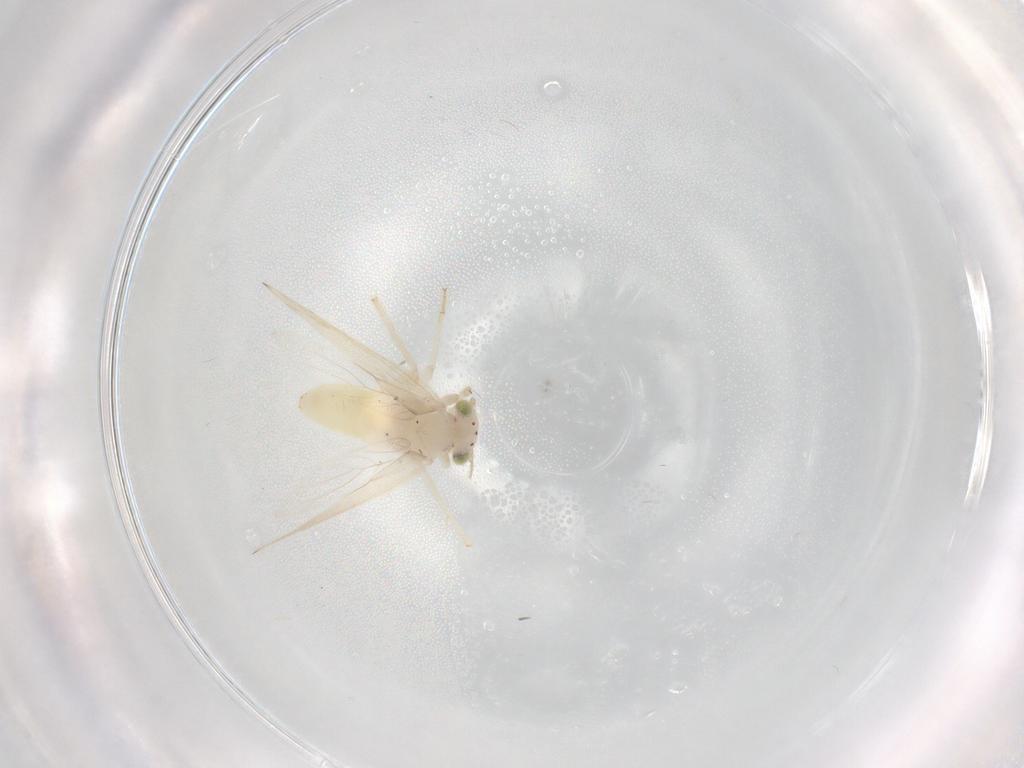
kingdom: Animalia
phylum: Arthropoda
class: Insecta
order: Psocodea
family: Lepidopsocidae
